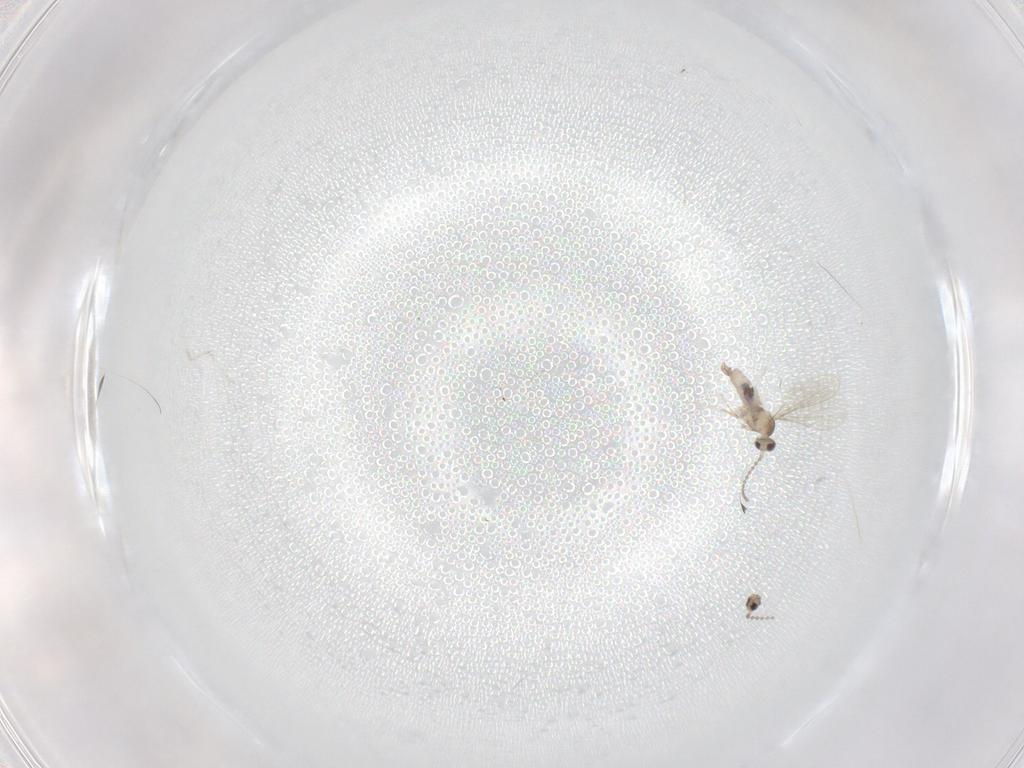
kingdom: Animalia
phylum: Arthropoda
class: Insecta
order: Diptera
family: Cecidomyiidae
